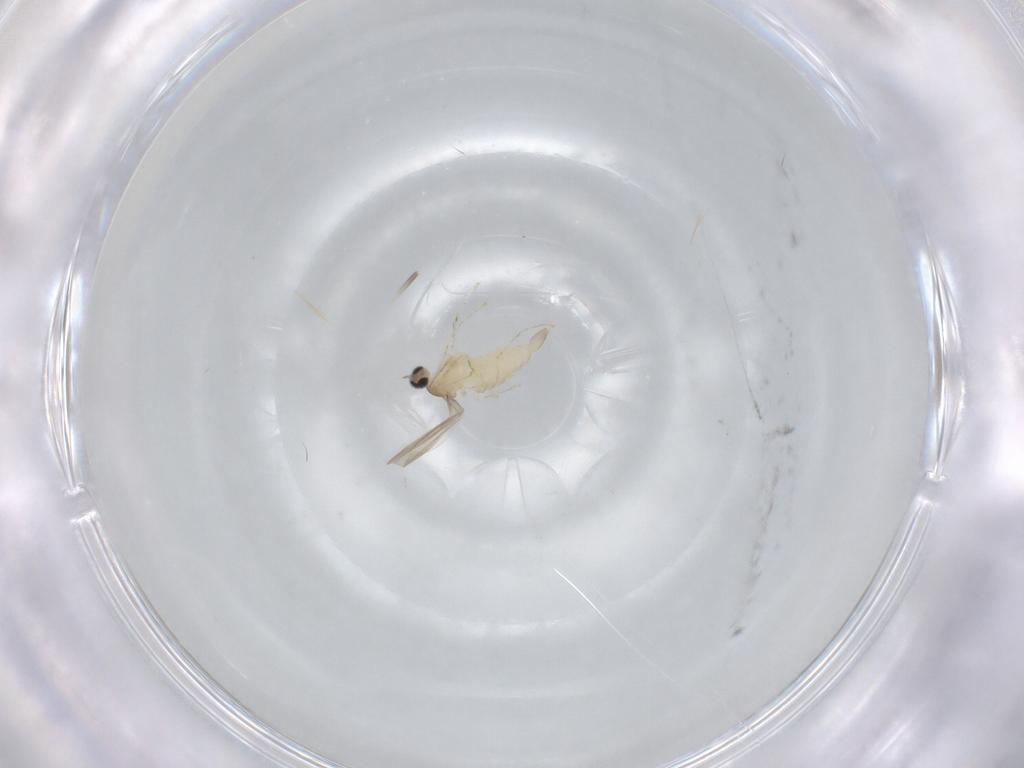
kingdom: Animalia
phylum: Arthropoda
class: Insecta
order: Diptera
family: Cecidomyiidae
